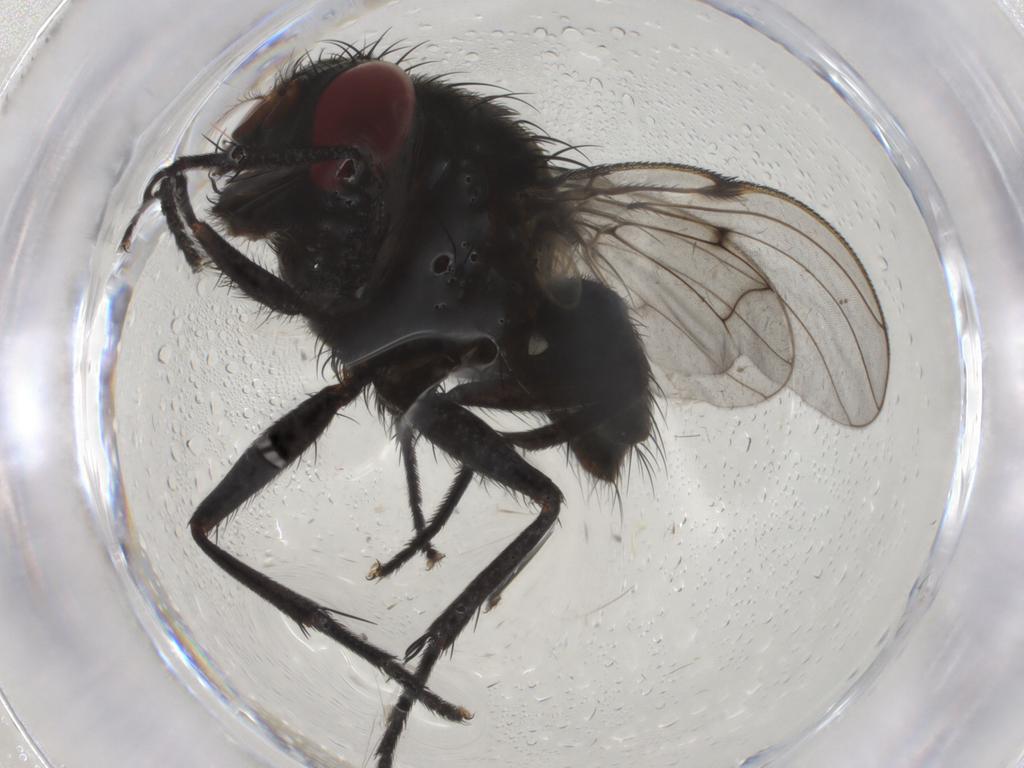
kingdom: Animalia
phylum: Arthropoda
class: Insecta
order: Diptera
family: Muscidae
